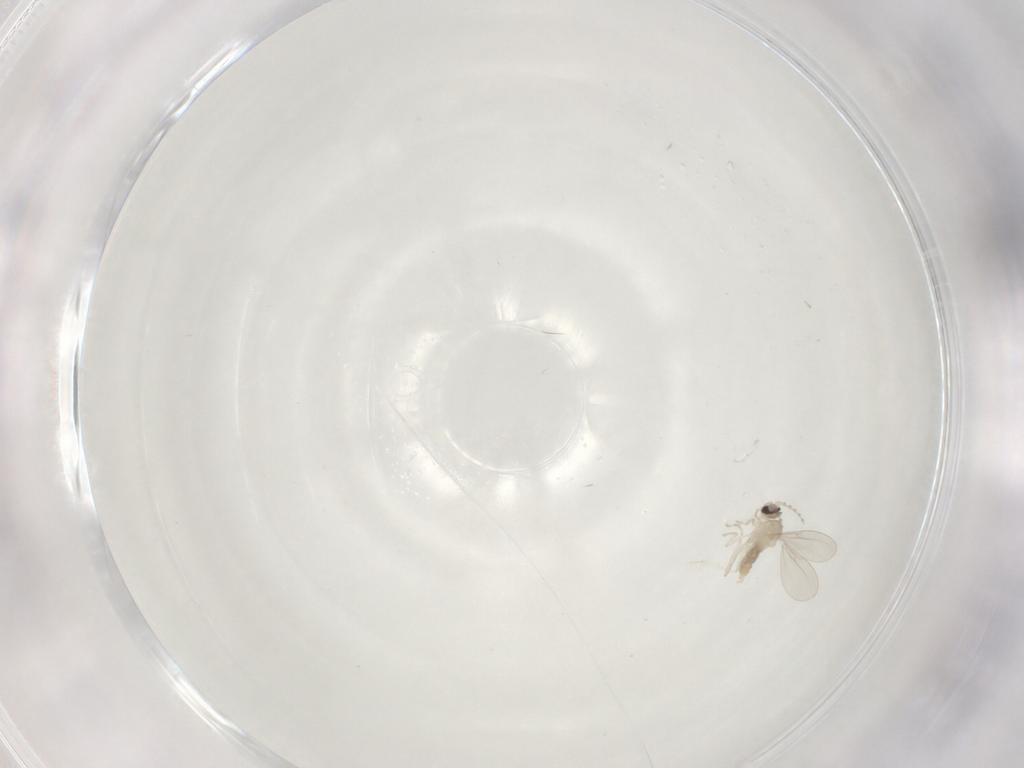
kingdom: Animalia
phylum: Arthropoda
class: Insecta
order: Diptera
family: Cecidomyiidae
